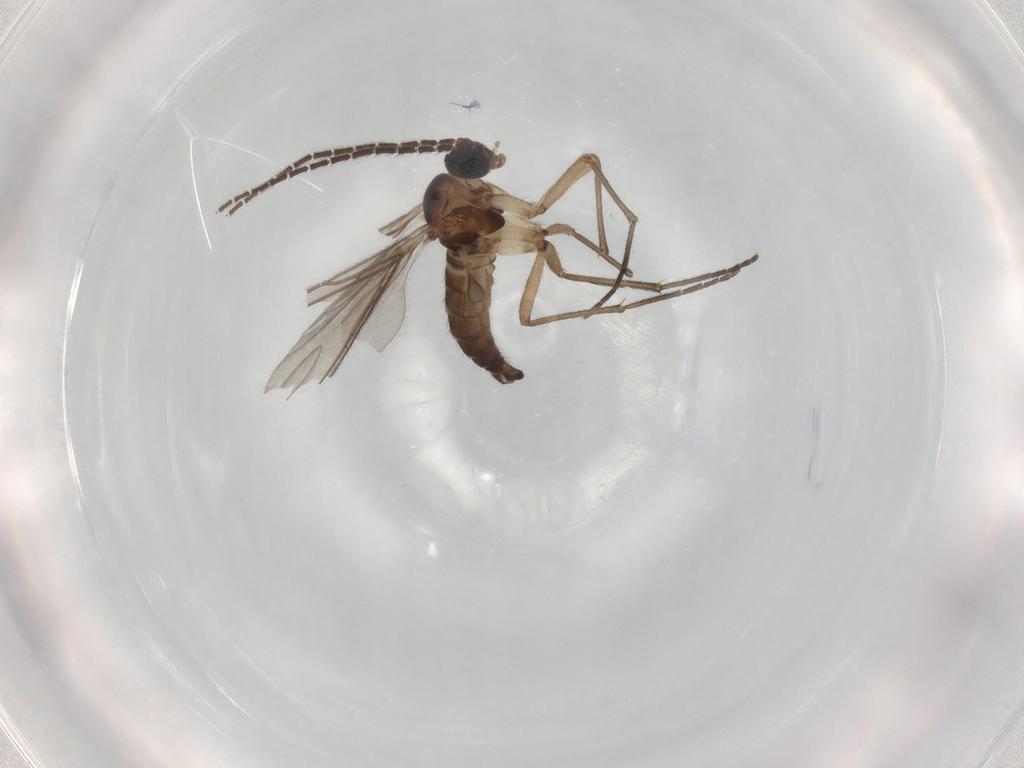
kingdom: Animalia
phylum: Arthropoda
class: Insecta
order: Diptera
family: Sciaridae
